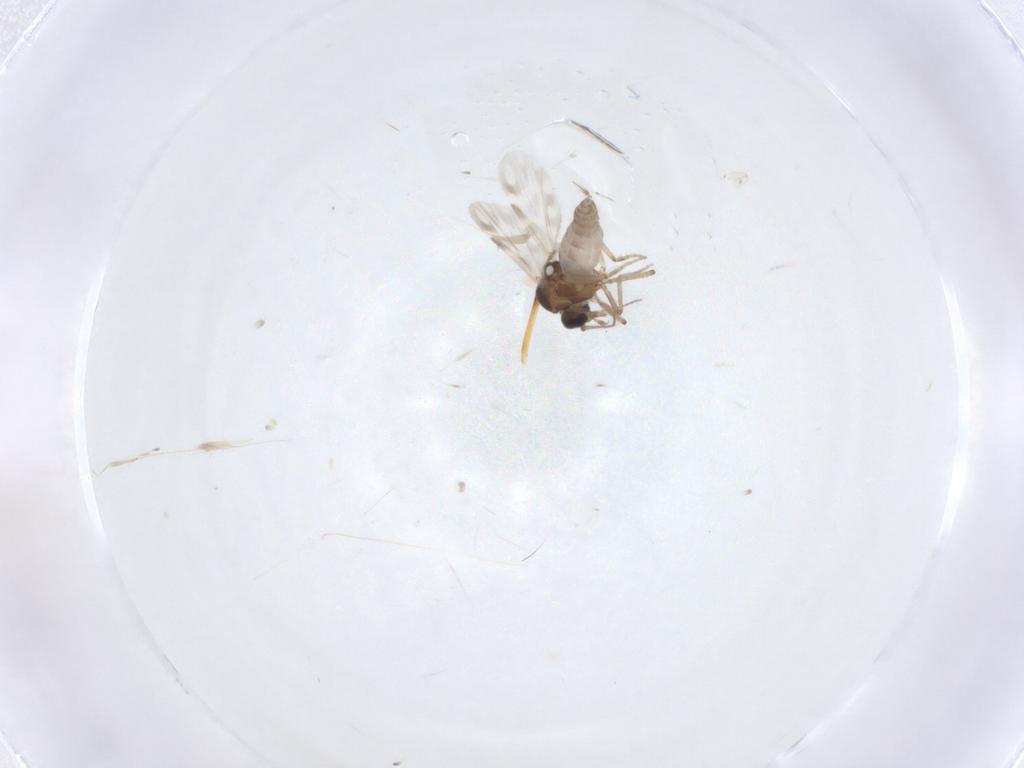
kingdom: Animalia
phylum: Arthropoda
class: Insecta
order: Diptera
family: Ceratopogonidae
